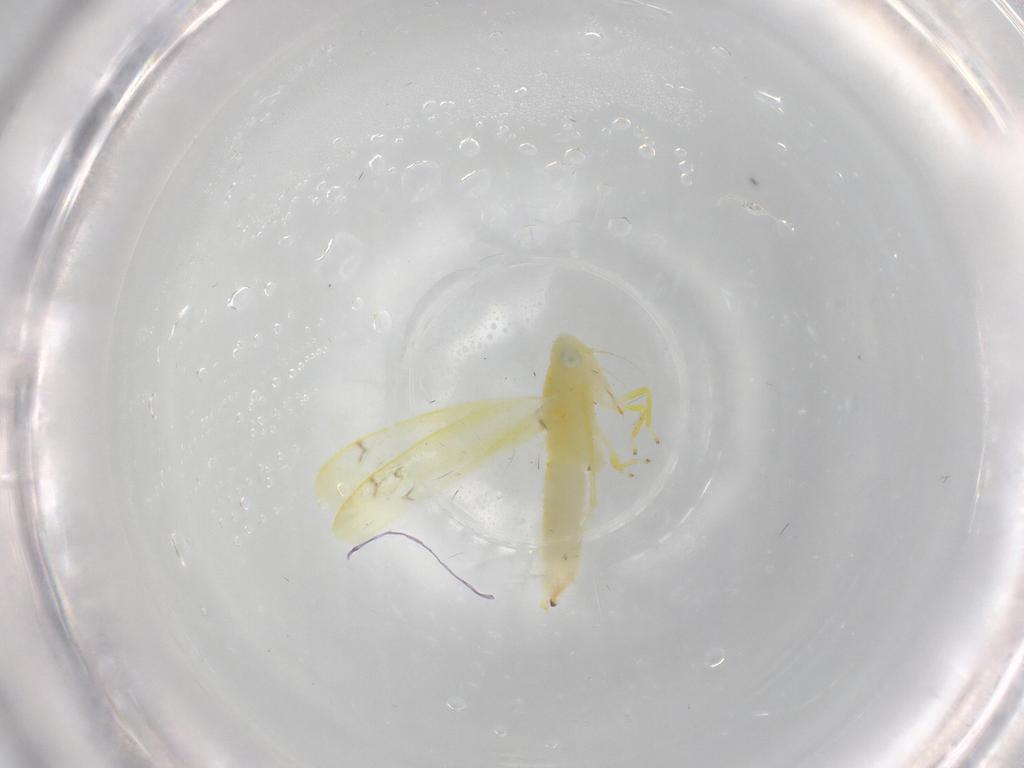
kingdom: Animalia
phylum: Arthropoda
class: Insecta
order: Hemiptera
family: Cicadellidae
